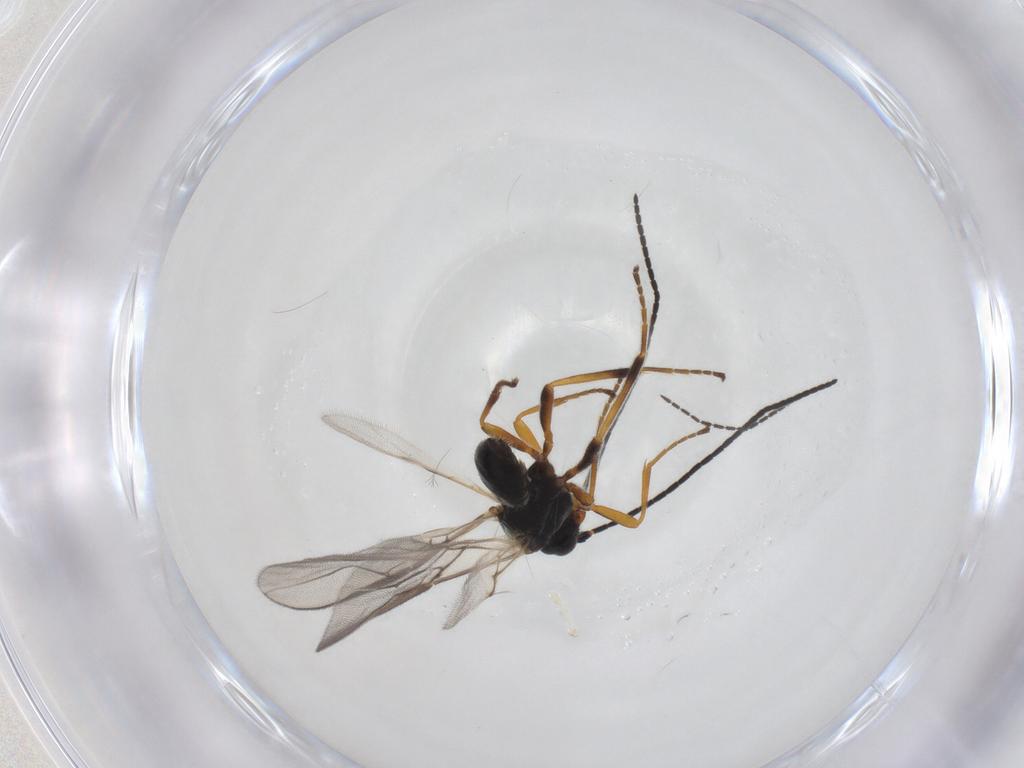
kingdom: Animalia
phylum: Arthropoda
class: Insecta
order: Hymenoptera
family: Braconidae
